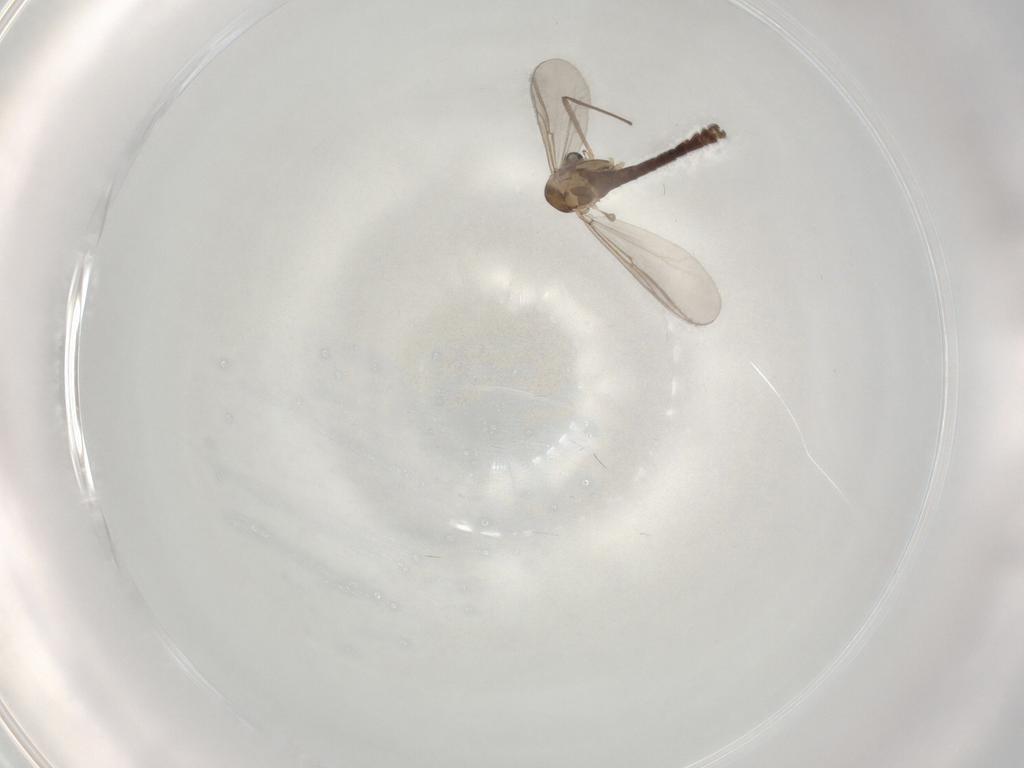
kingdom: Animalia
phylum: Arthropoda
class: Insecta
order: Diptera
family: Chironomidae
